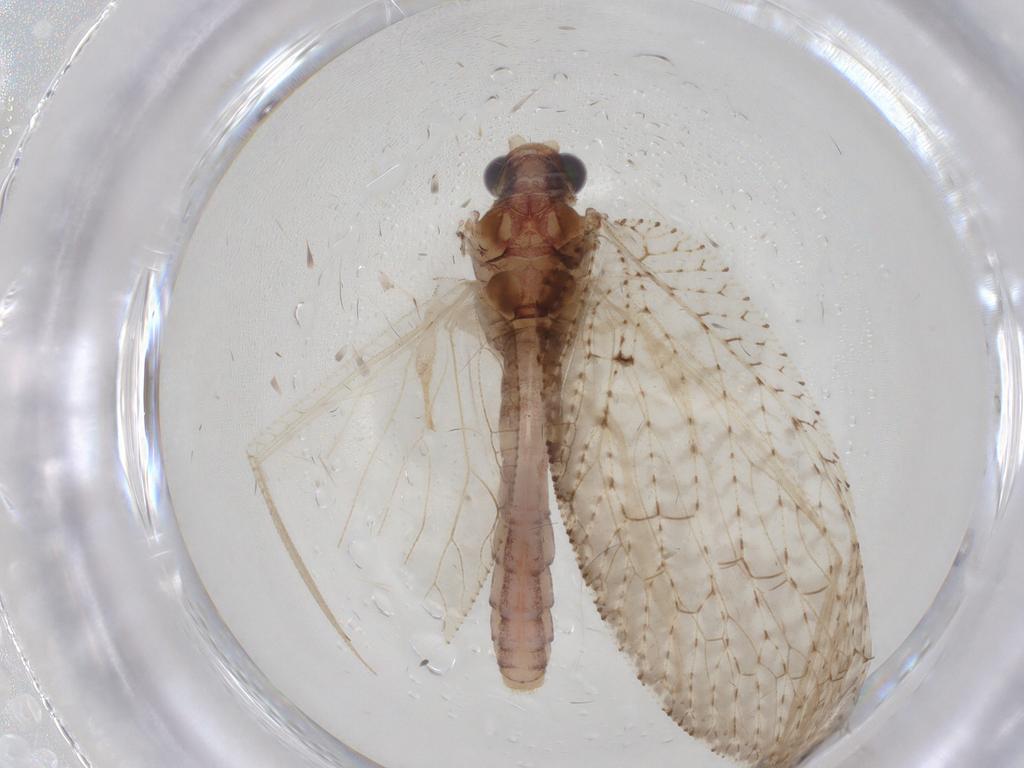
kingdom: Animalia
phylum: Arthropoda
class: Insecta
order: Neuroptera
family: Hemerobiidae
